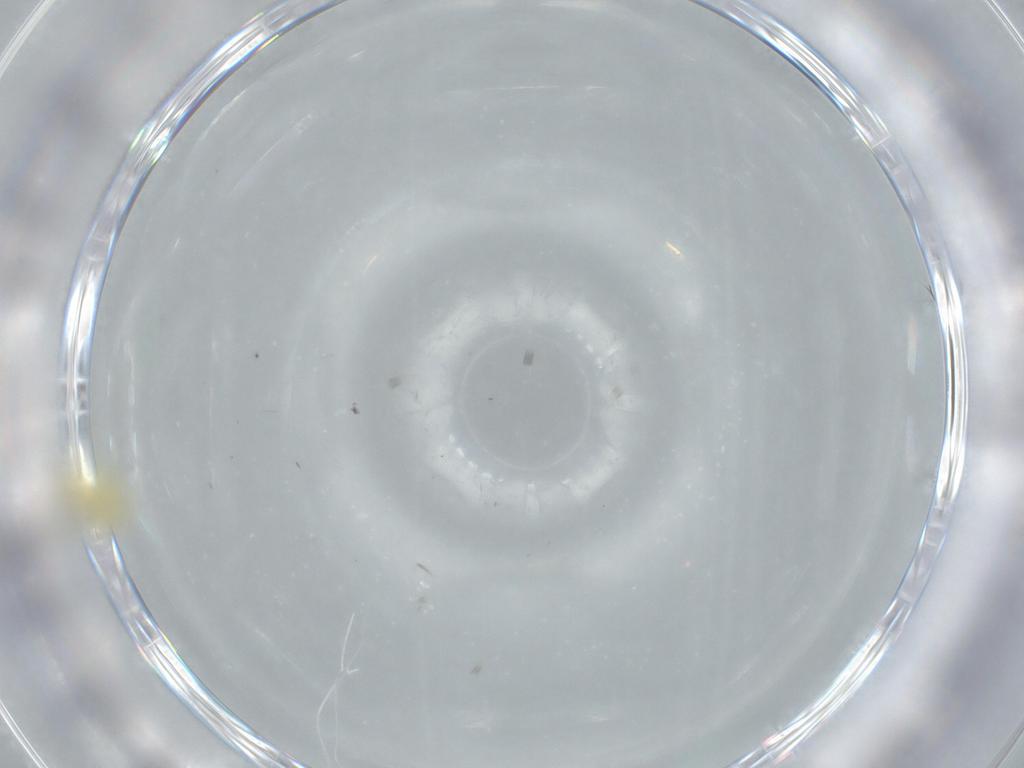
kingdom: Animalia
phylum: Arthropoda
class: Insecta
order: Coleoptera
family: Chrysomelidae
